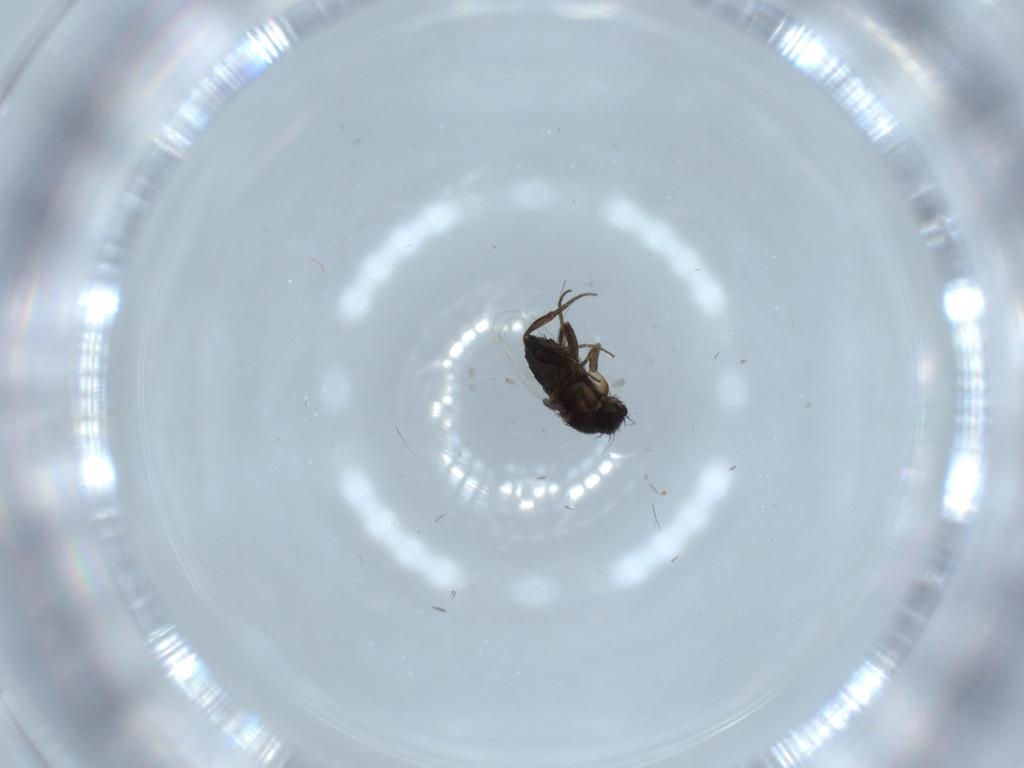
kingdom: Animalia
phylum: Arthropoda
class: Insecta
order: Diptera
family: Phoridae
